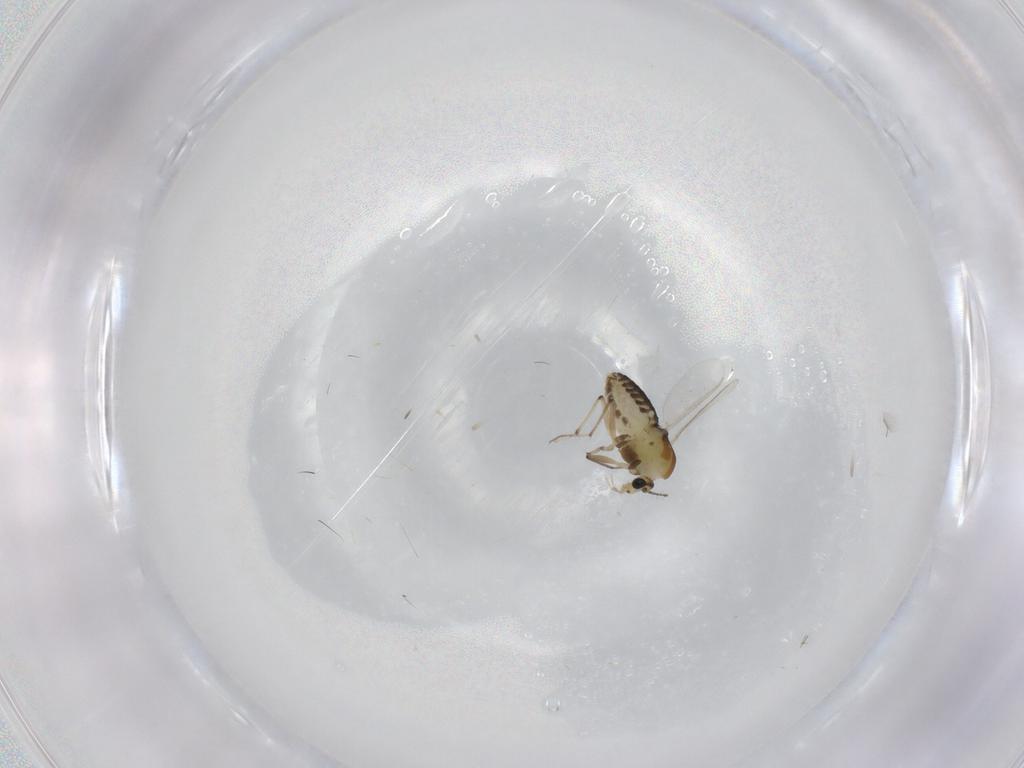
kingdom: Animalia
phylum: Arthropoda
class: Insecta
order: Diptera
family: Chironomidae
